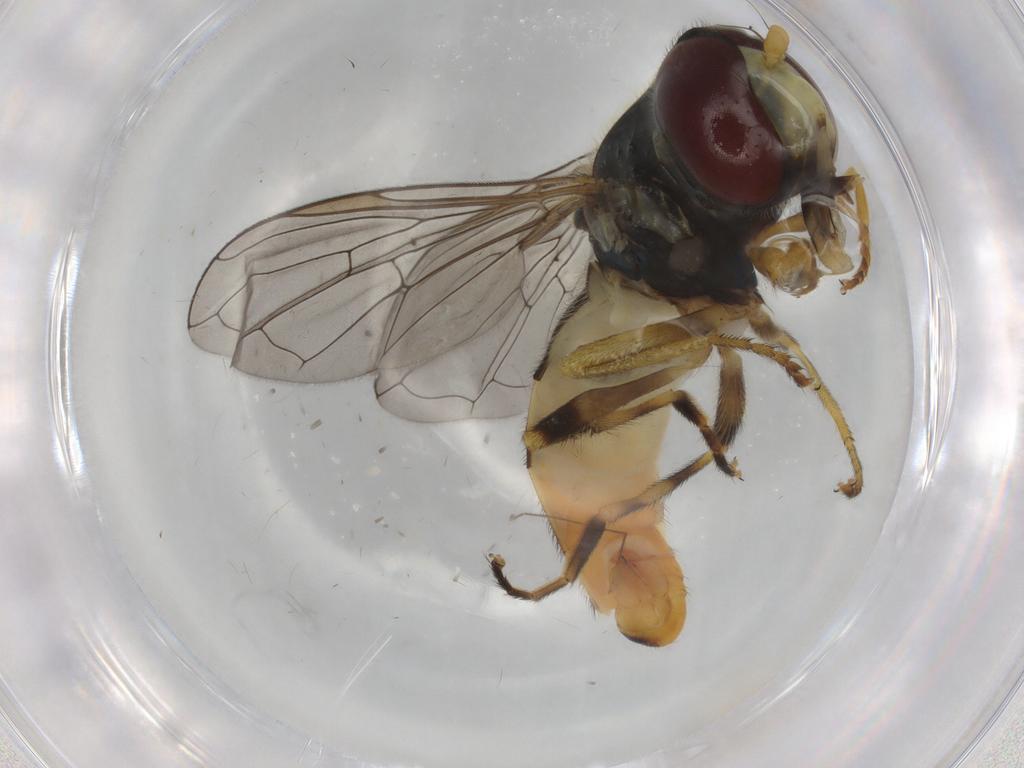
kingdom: Animalia
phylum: Arthropoda
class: Insecta
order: Diptera
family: Syrphidae
